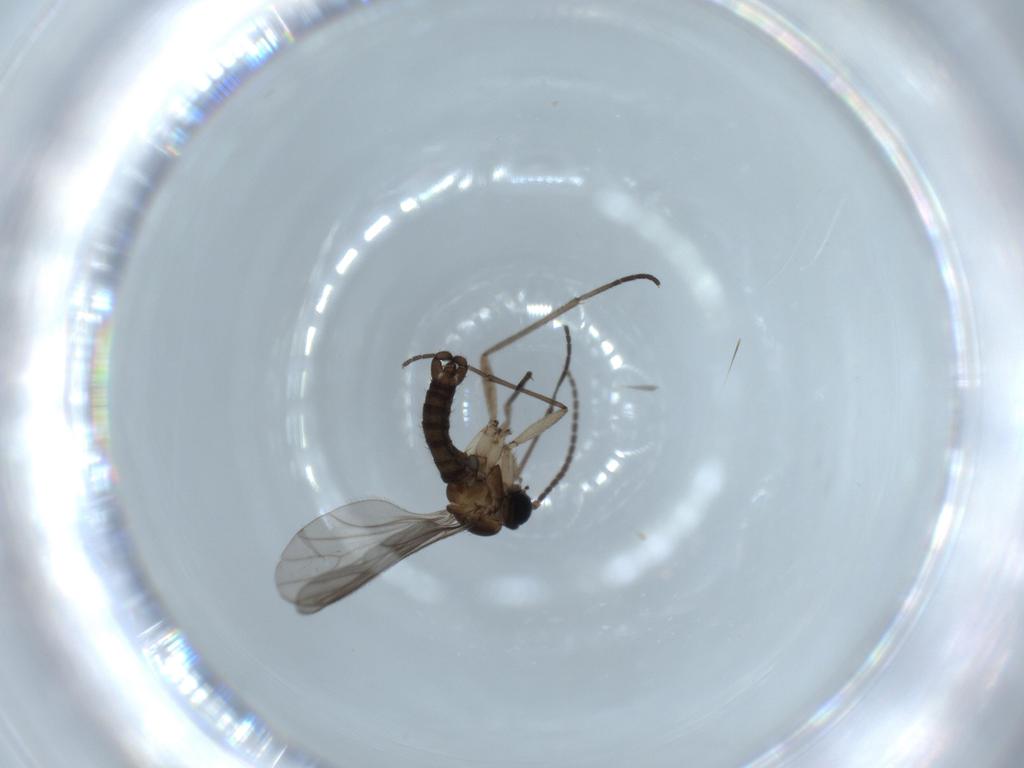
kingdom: Animalia
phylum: Arthropoda
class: Insecta
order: Diptera
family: Sciaridae
